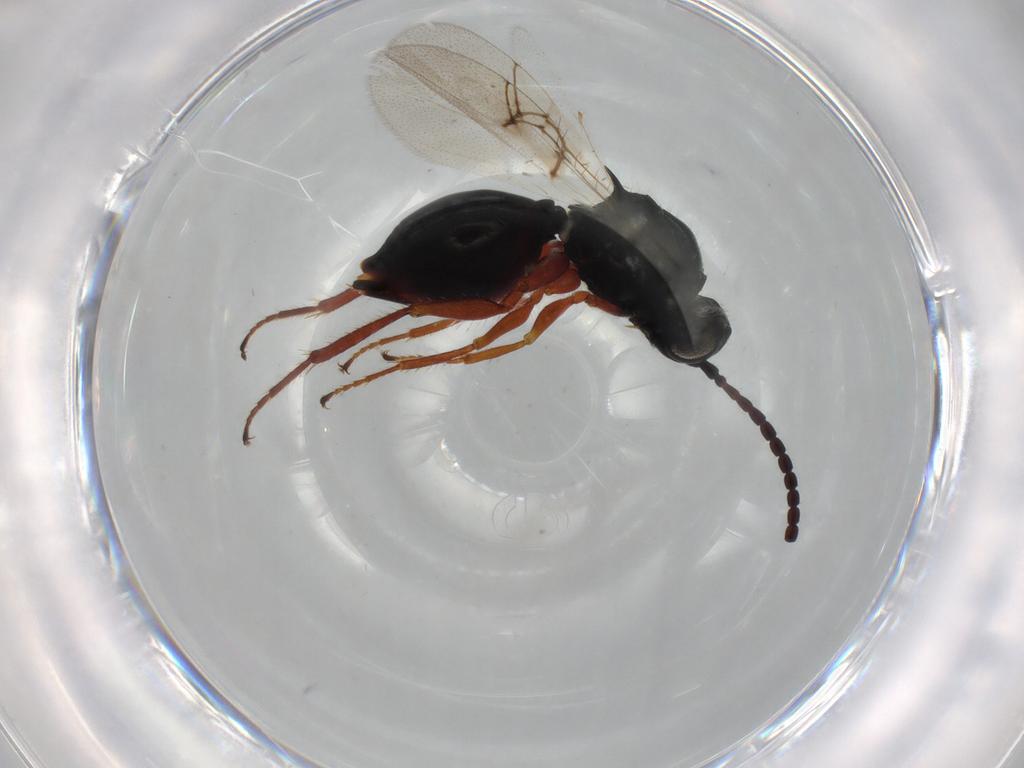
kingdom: Animalia
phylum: Arthropoda
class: Insecta
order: Hymenoptera
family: Figitidae
